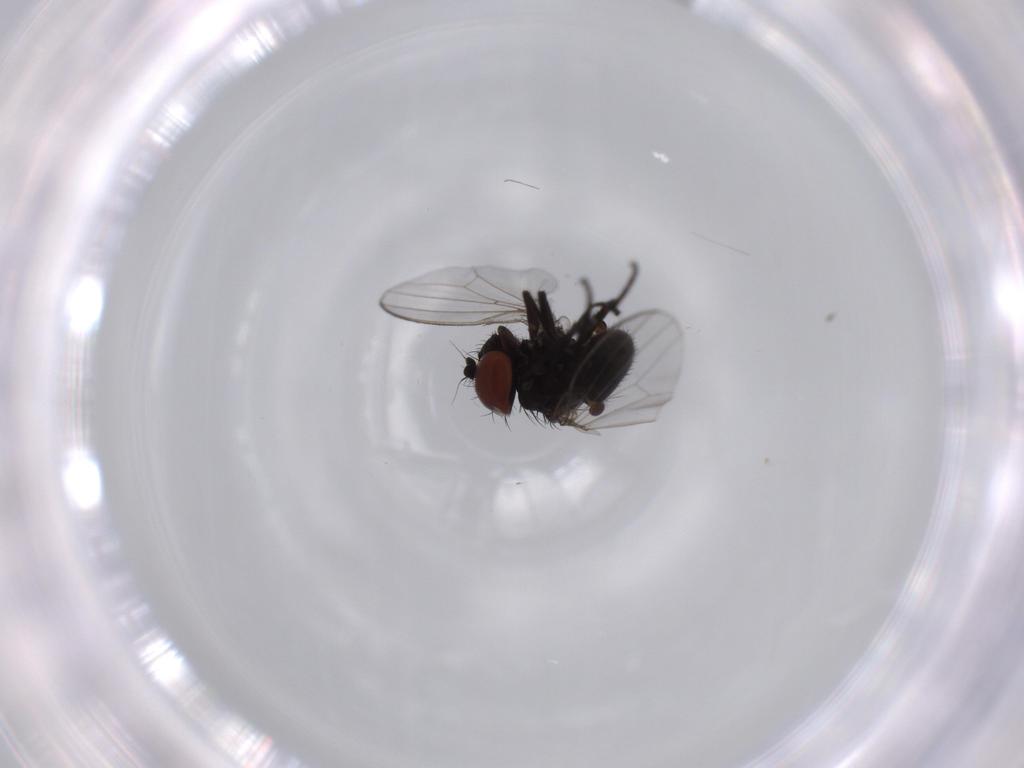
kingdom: Animalia
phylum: Arthropoda
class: Insecta
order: Diptera
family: Milichiidae
